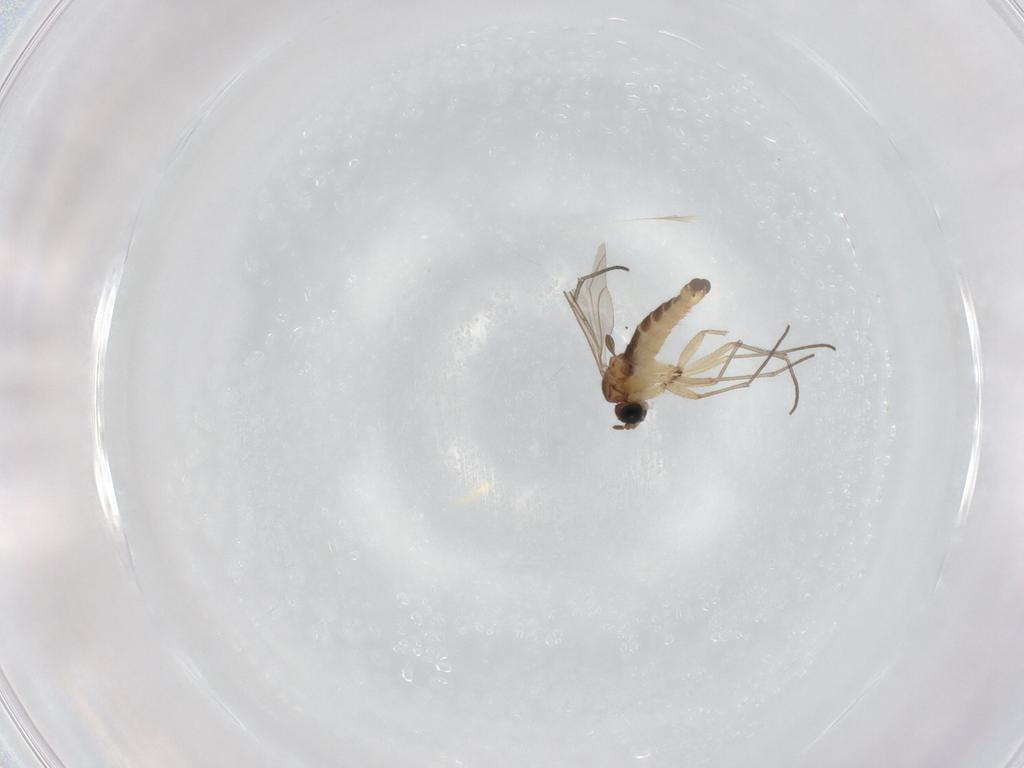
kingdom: Animalia
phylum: Arthropoda
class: Insecta
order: Diptera
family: Sciaridae
